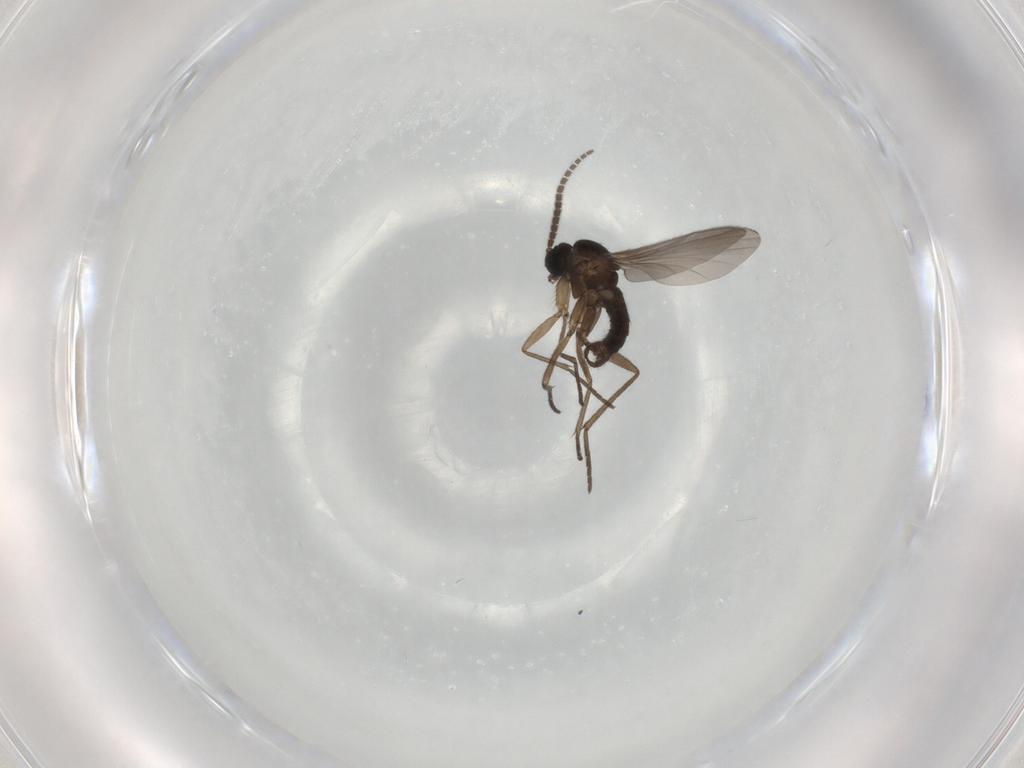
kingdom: Animalia
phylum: Arthropoda
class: Insecta
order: Diptera
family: Sciaridae
